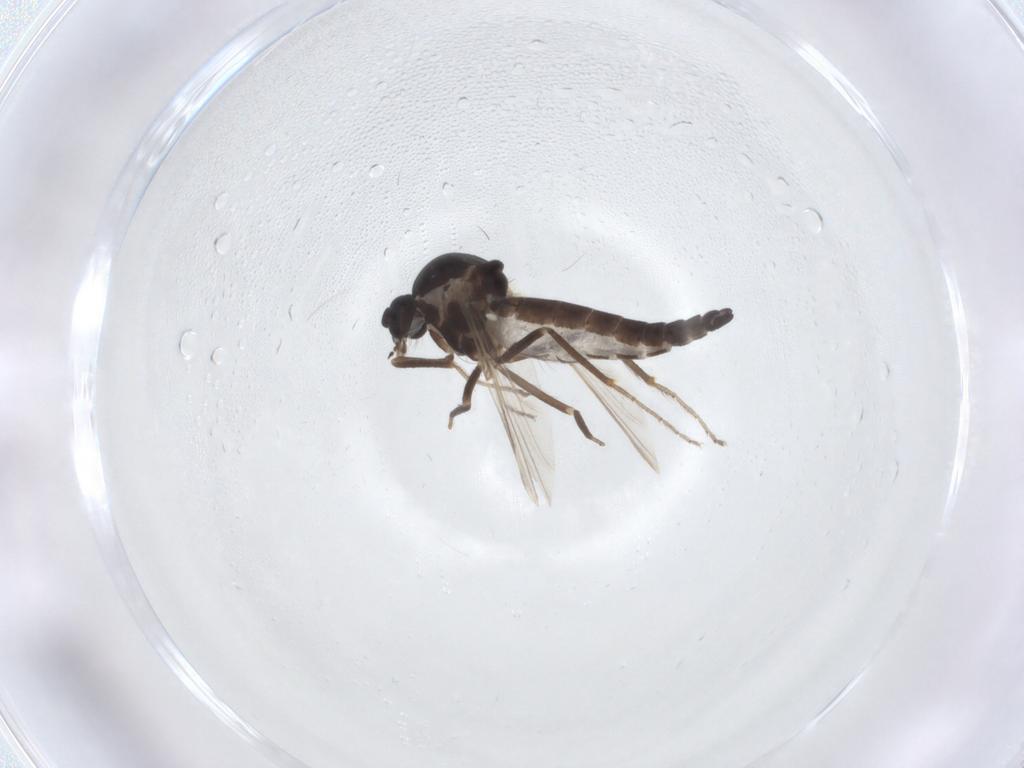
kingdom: Animalia
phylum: Arthropoda
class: Insecta
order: Diptera
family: Ceratopogonidae
